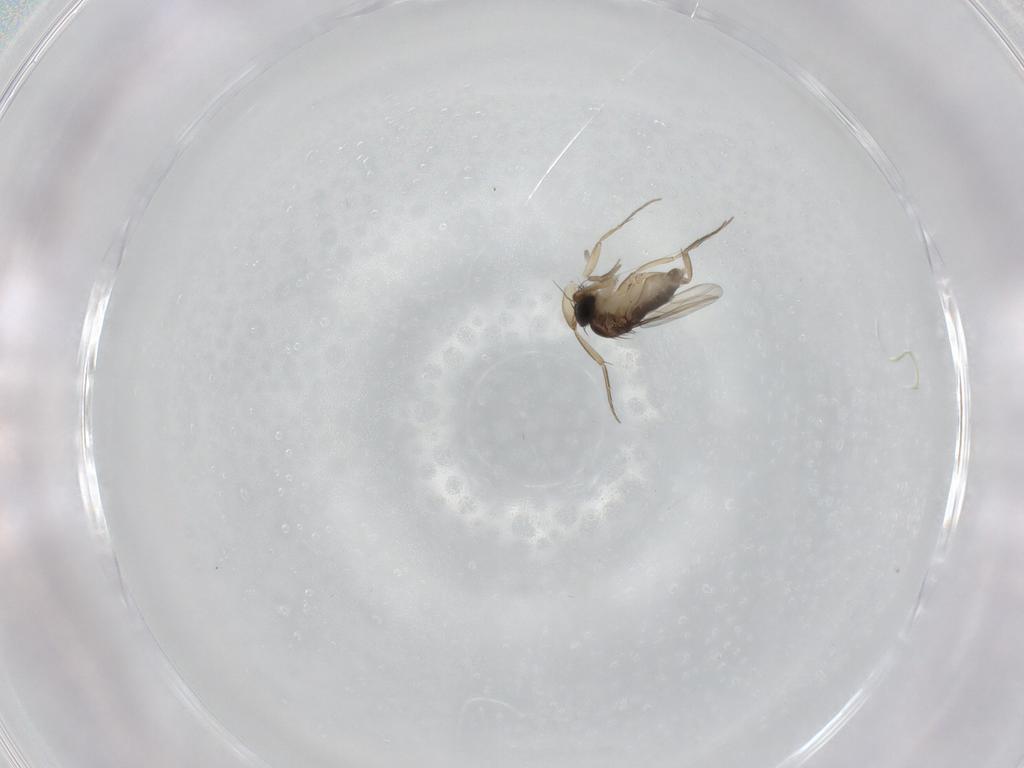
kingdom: Animalia
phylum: Arthropoda
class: Insecta
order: Diptera
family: Phoridae
